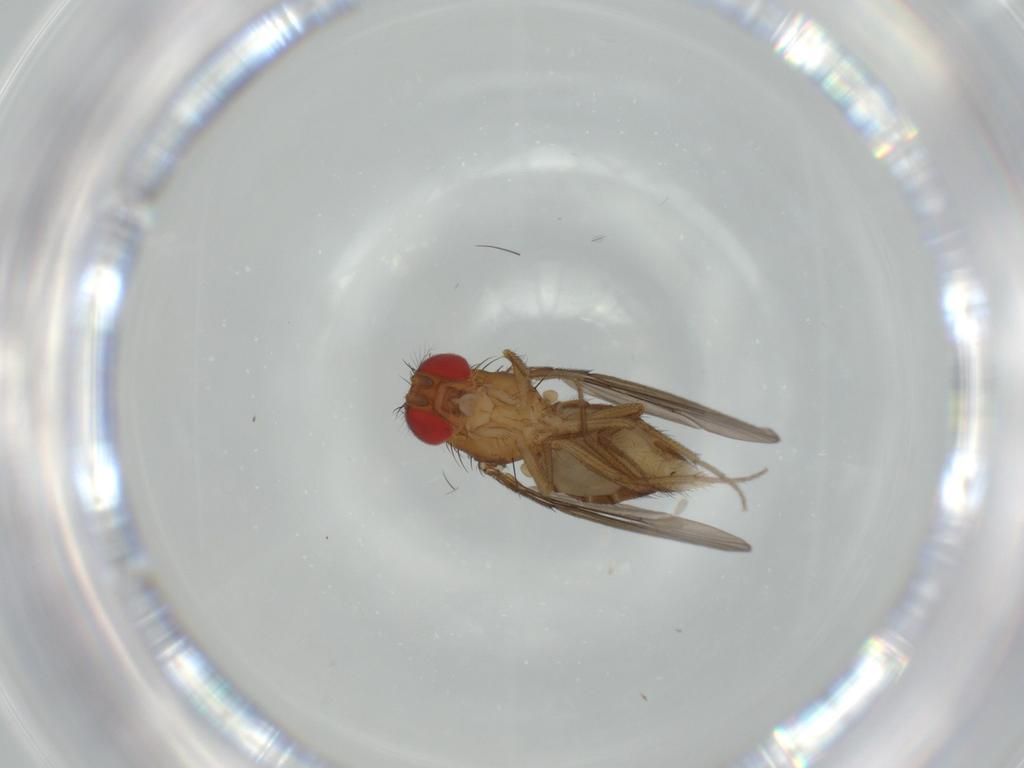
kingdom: Animalia
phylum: Arthropoda
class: Insecta
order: Diptera
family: Drosophilidae
